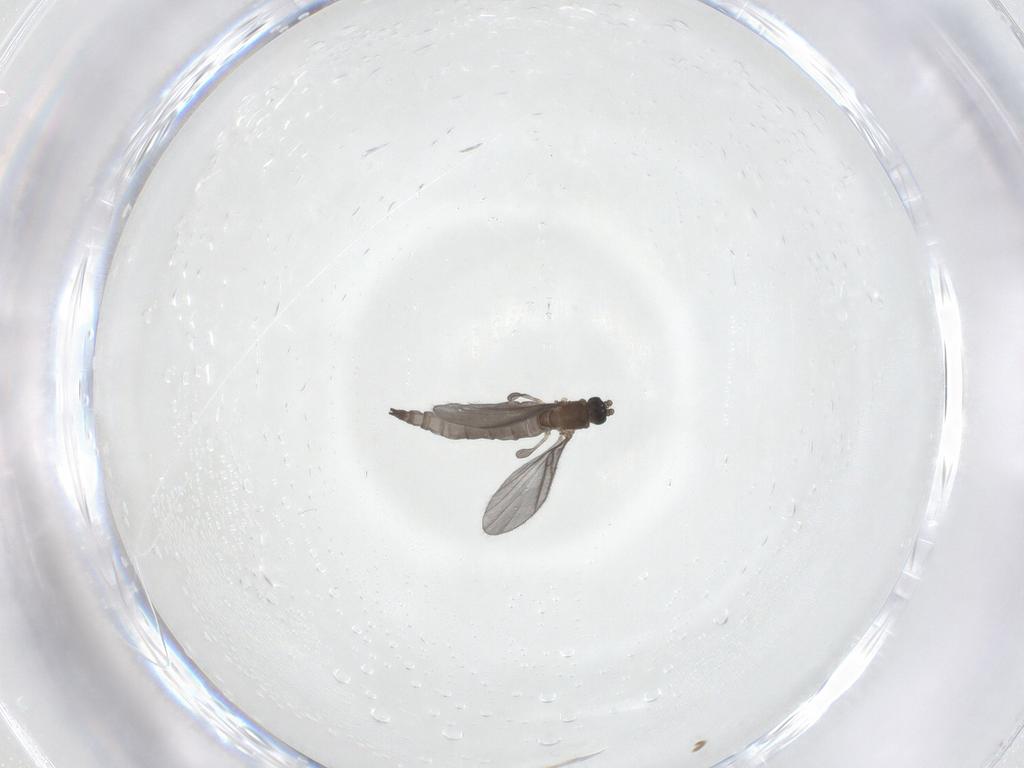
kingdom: Animalia
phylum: Arthropoda
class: Insecta
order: Diptera
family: Sciaridae
